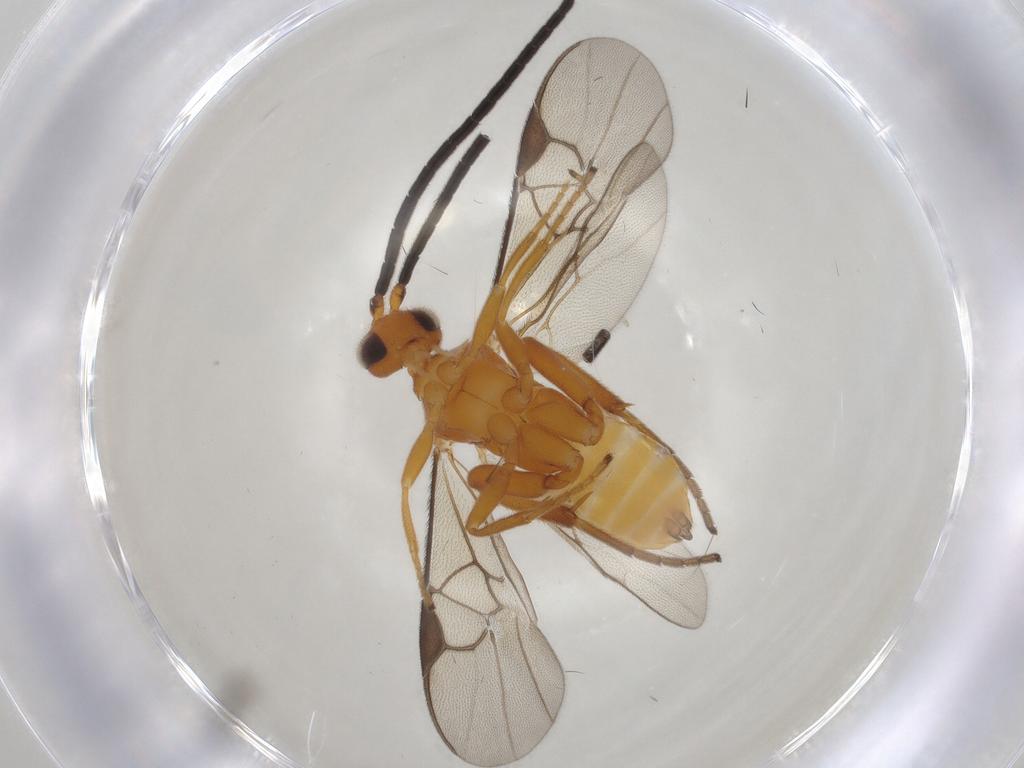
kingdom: Animalia
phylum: Arthropoda
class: Insecta
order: Hymenoptera
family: Braconidae
